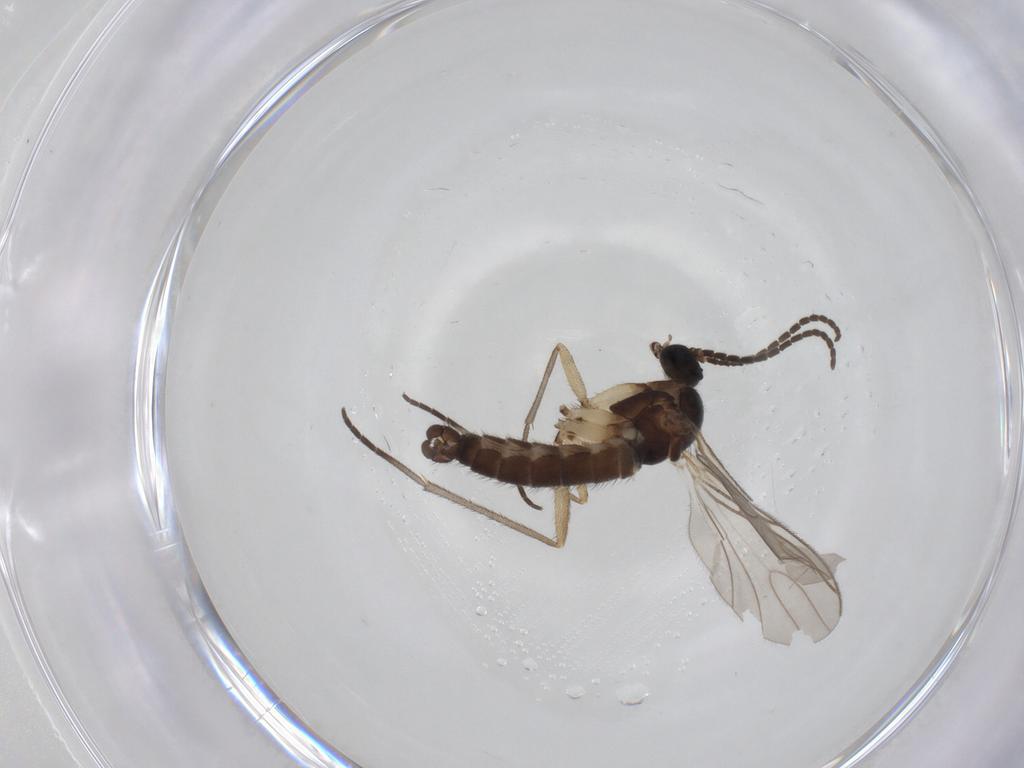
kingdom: Animalia
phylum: Arthropoda
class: Insecta
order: Diptera
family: Sciaridae
